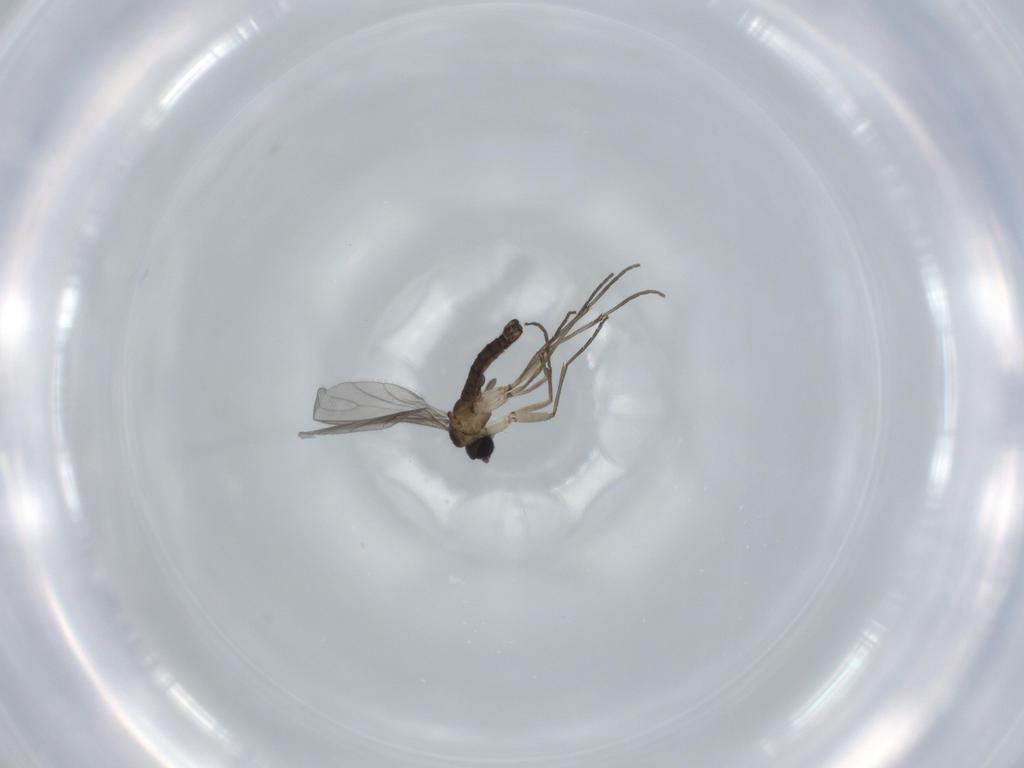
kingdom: Animalia
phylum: Arthropoda
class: Insecta
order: Diptera
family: Sciaridae
